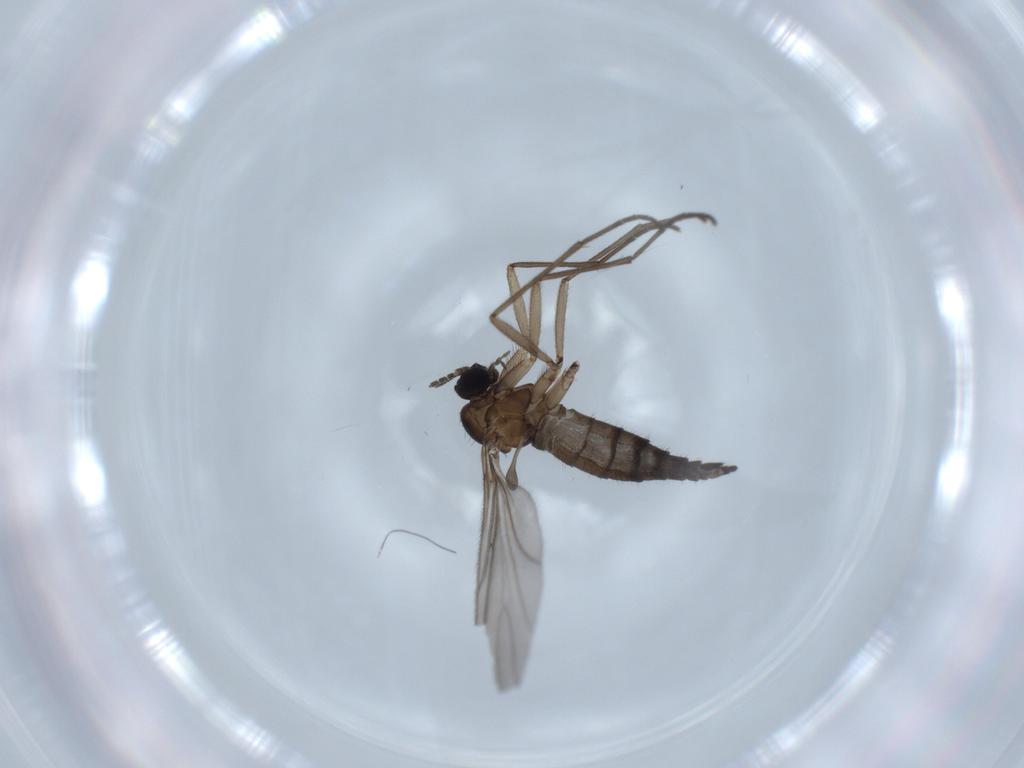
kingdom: Animalia
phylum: Arthropoda
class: Insecta
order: Diptera
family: Sciaridae
